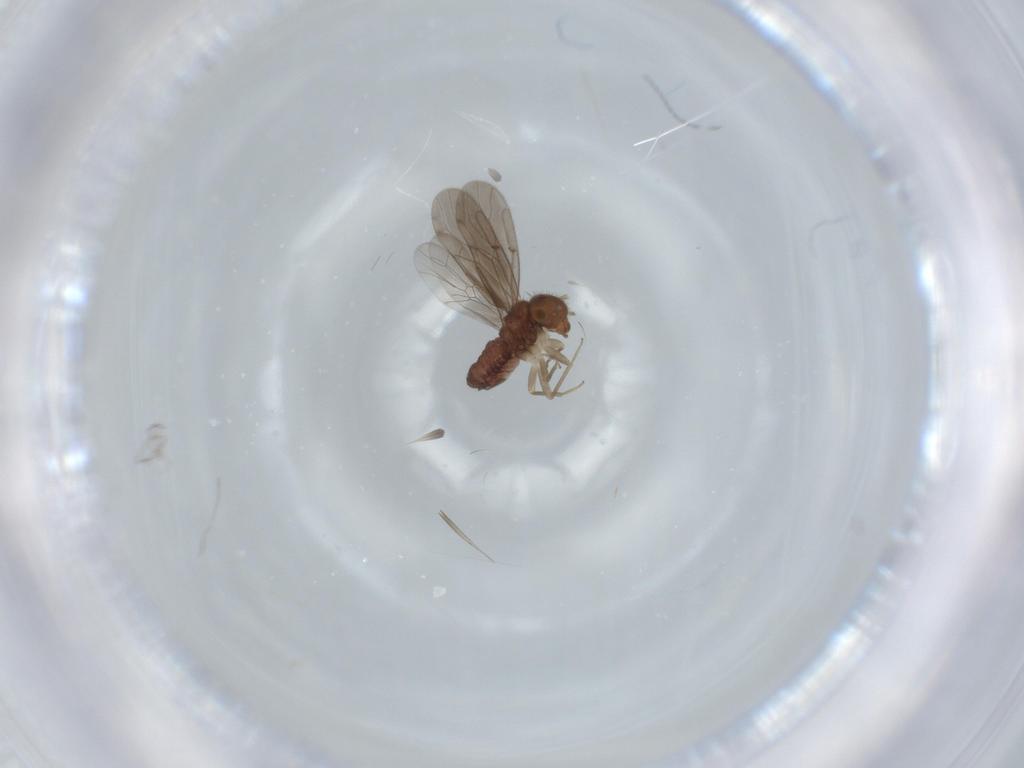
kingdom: Animalia
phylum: Arthropoda
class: Insecta
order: Psocodea
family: Ectopsocidae
